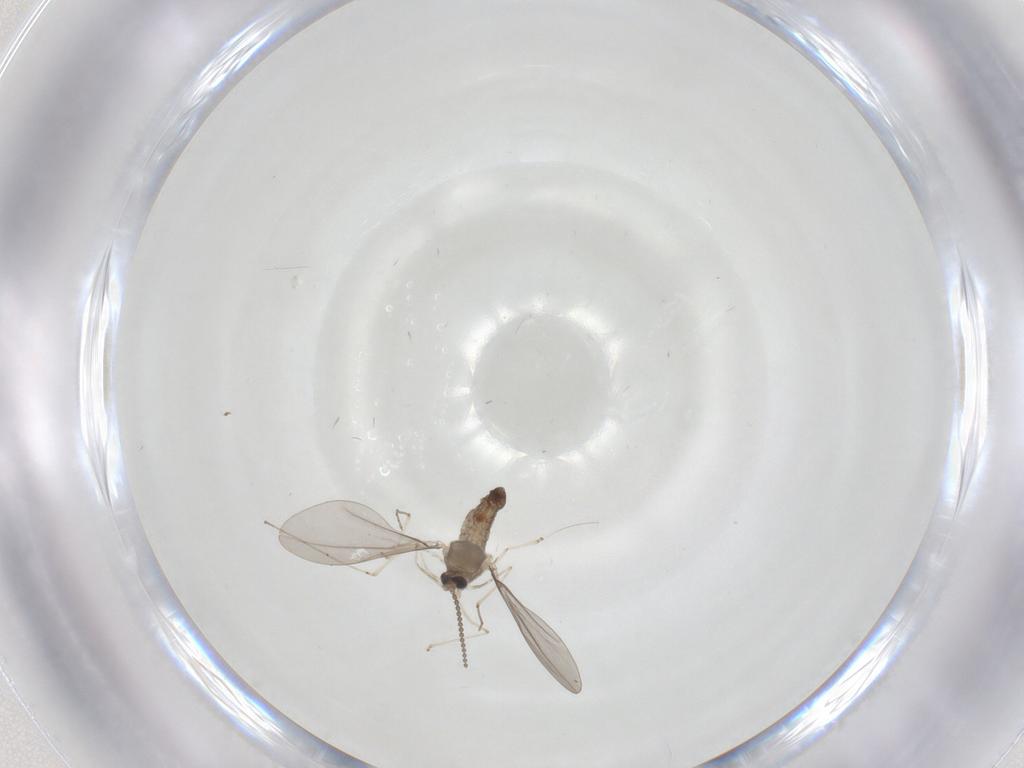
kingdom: Animalia
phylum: Arthropoda
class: Insecta
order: Diptera
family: Cecidomyiidae
